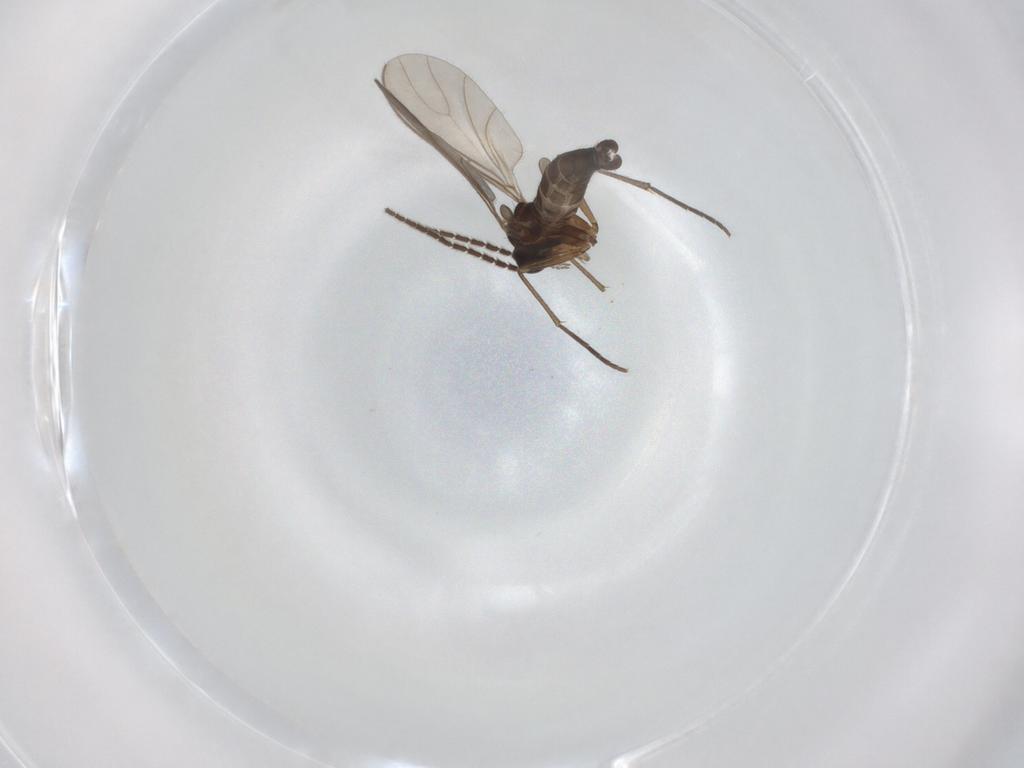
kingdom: Animalia
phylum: Arthropoda
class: Insecta
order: Diptera
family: Sciaridae
